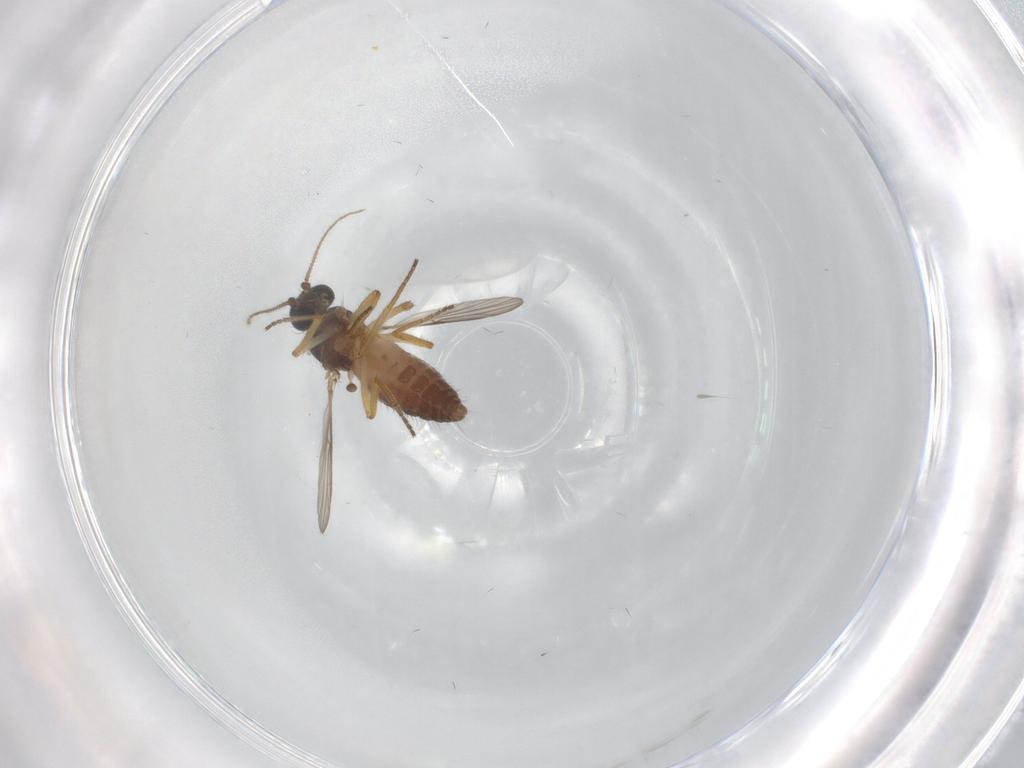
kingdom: Animalia
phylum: Arthropoda
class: Insecta
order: Diptera
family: Ceratopogonidae
